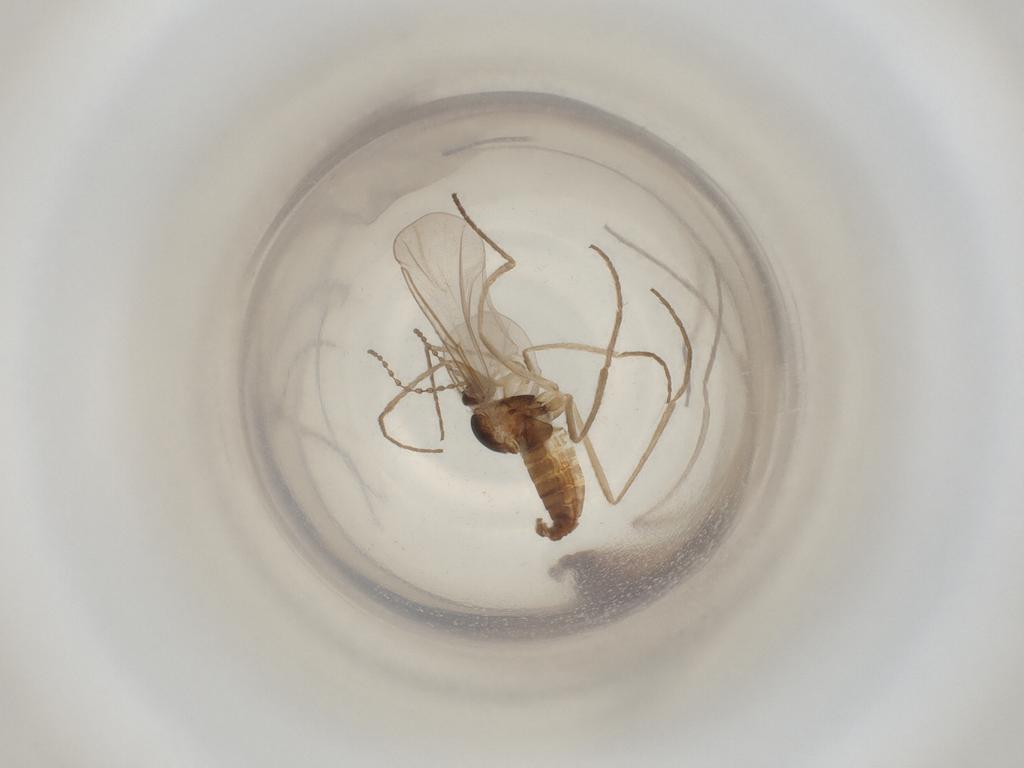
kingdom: Animalia
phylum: Arthropoda
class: Insecta
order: Diptera
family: Cecidomyiidae
